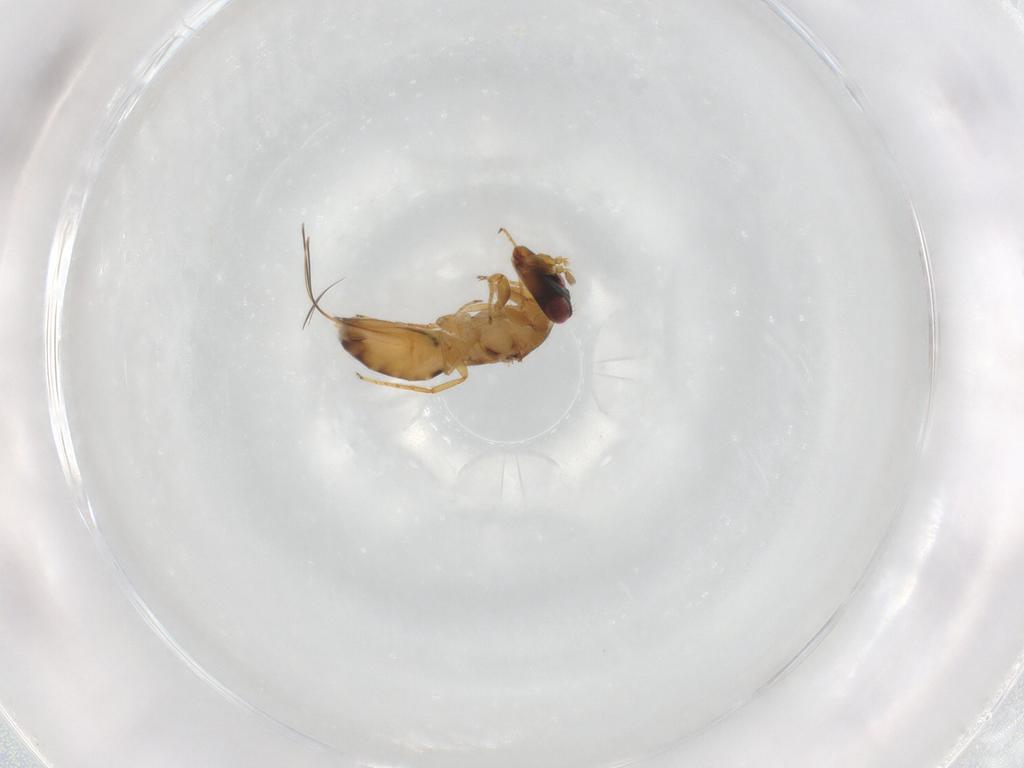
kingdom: Animalia
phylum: Arthropoda
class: Insecta
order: Hymenoptera
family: Agaonidae
